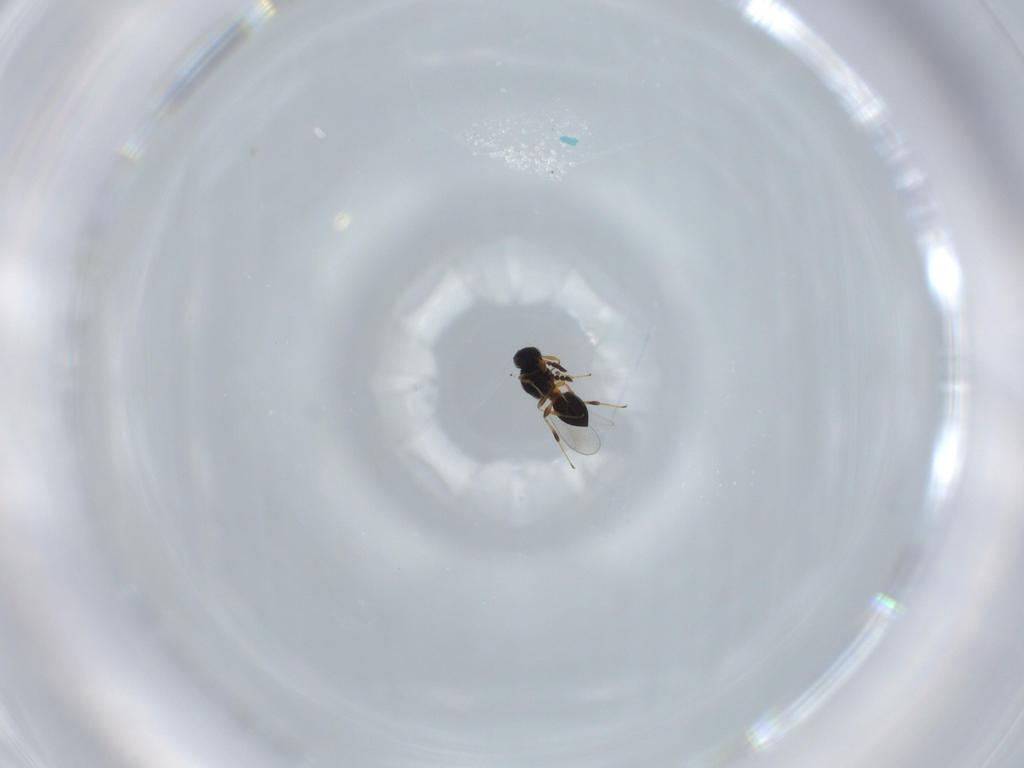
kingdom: Animalia
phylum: Arthropoda
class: Insecta
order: Hymenoptera
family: Platygastridae
